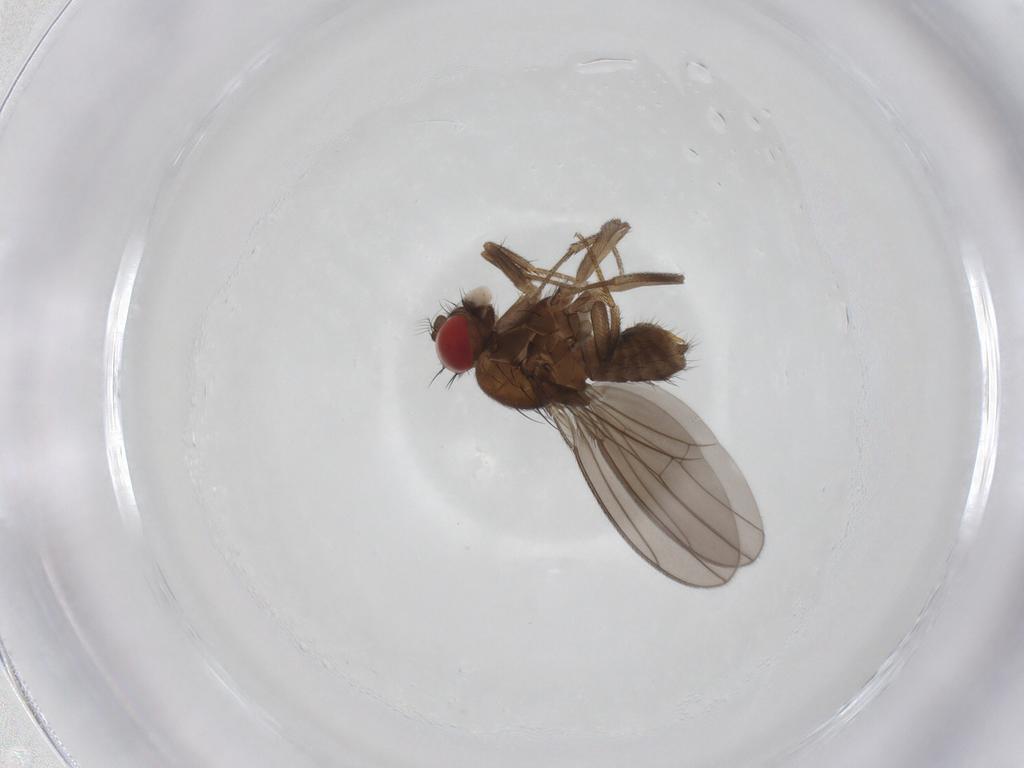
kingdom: Animalia
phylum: Arthropoda
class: Insecta
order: Diptera
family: Drosophilidae
